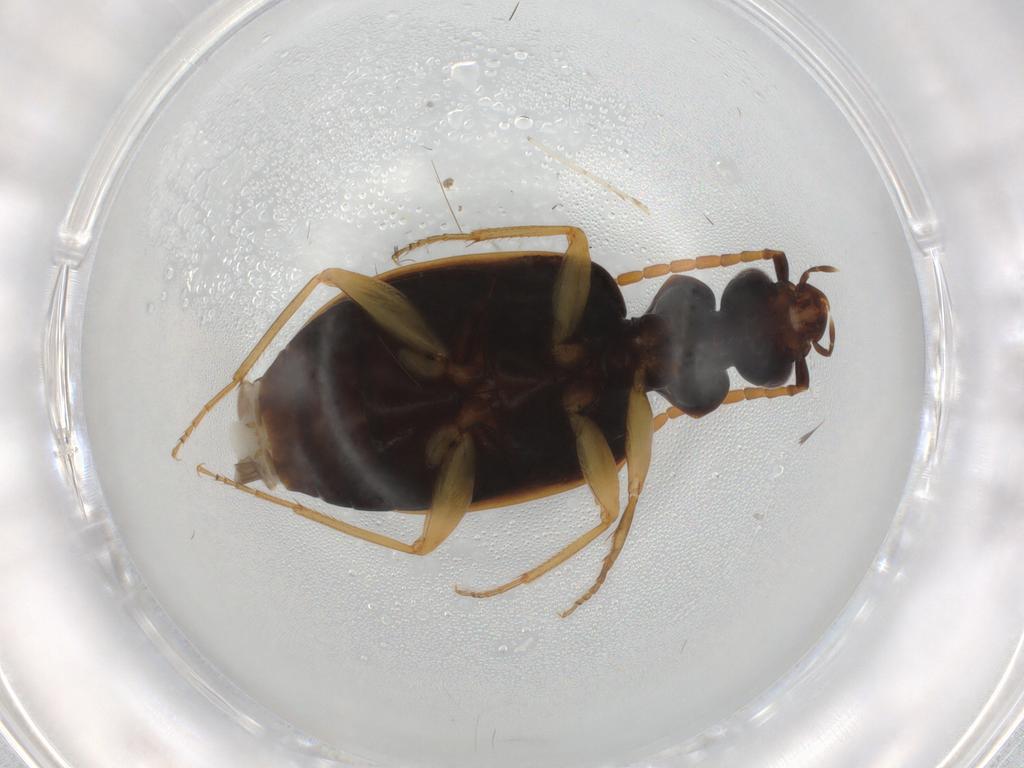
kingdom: Animalia
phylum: Arthropoda
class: Insecta
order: Coleoptera
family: Carabidae
